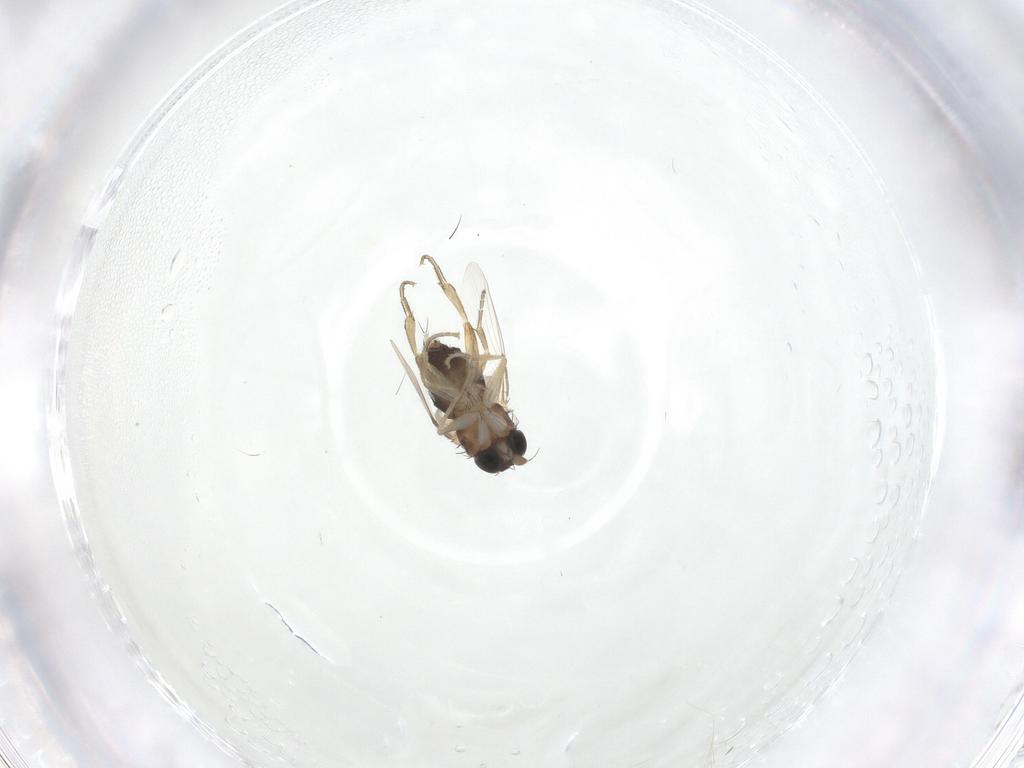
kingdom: Animalia
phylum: Arthropoda
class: Insecta
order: Diptera
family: Phoridae
